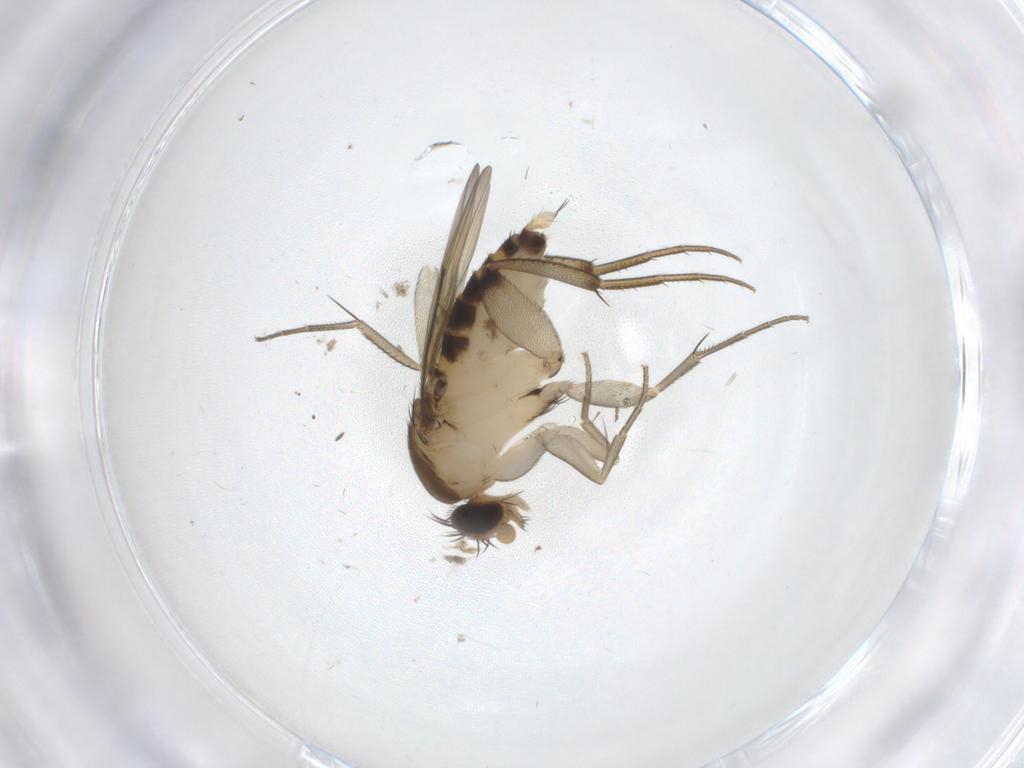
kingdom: Animalia
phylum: Arthropoda
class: Insecta
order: Diptera
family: Phoridae
